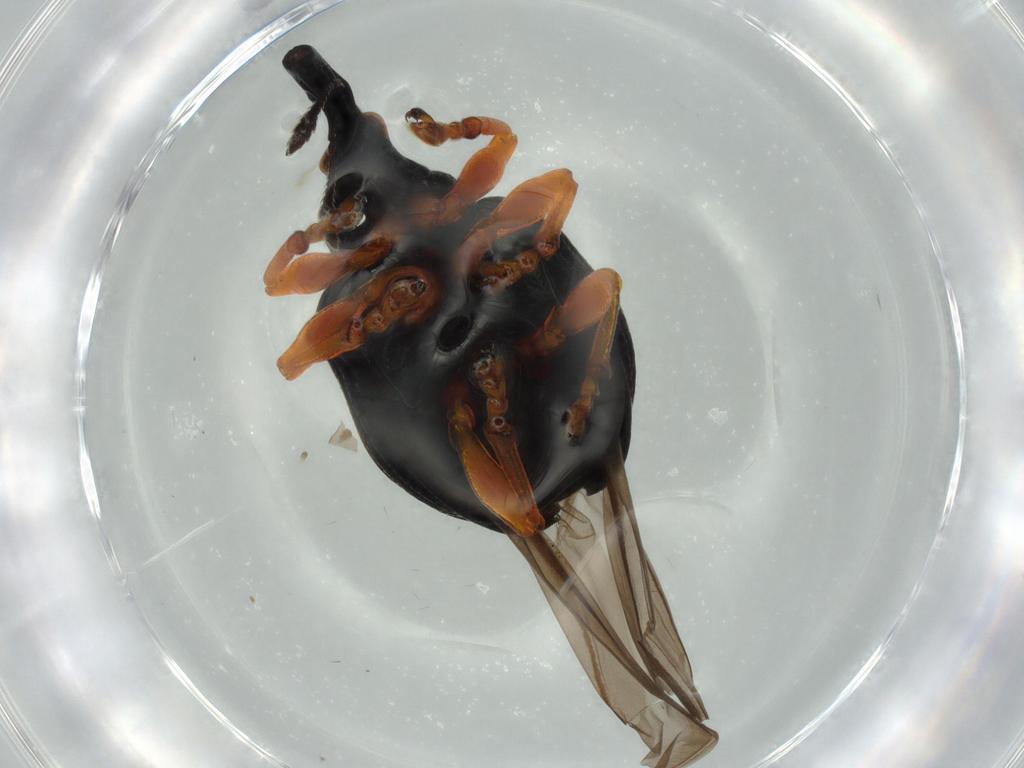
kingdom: Animalia
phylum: Arthropoda
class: Insecta
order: Coleoptera
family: Brentidae
